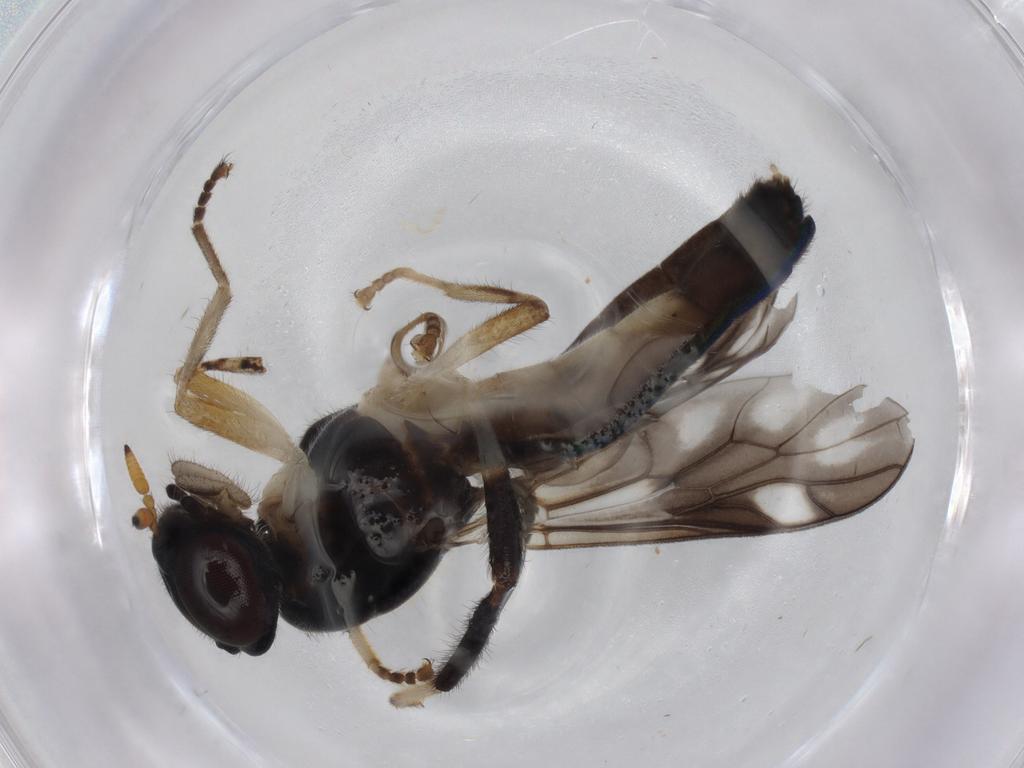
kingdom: Animalia
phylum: Arthropoda
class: Insecta
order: Diptera
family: Stratiomyidae
